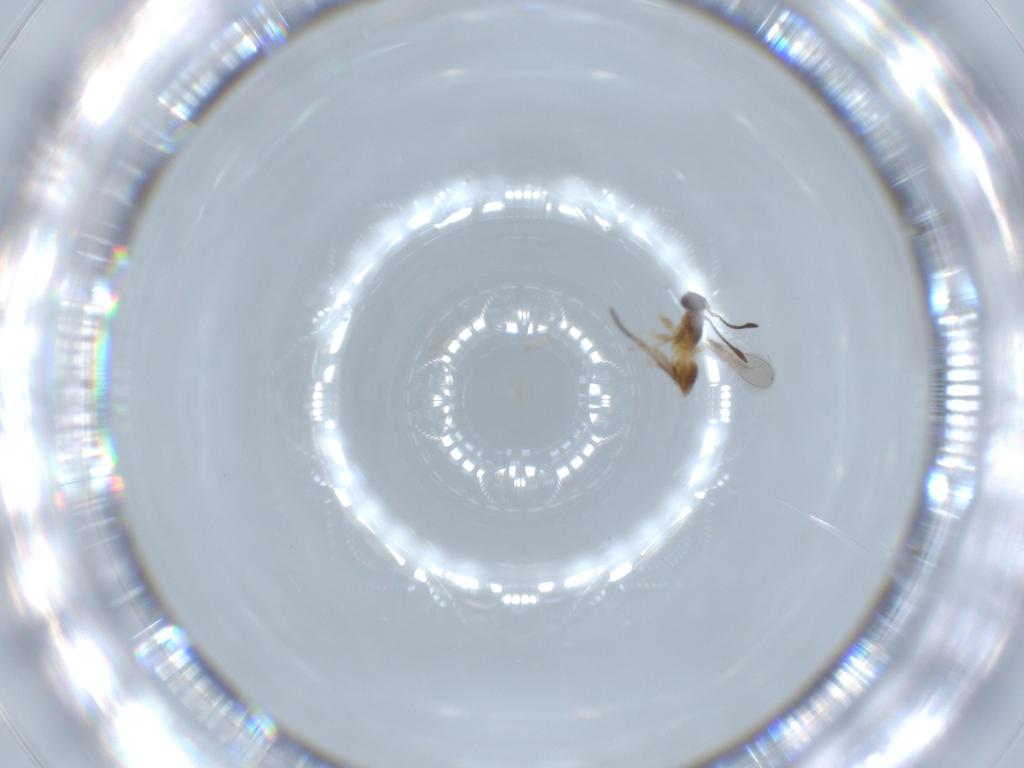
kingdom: Animalia
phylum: Arthropoda
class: Insecta
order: Hymenoptera
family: Mymaridae
